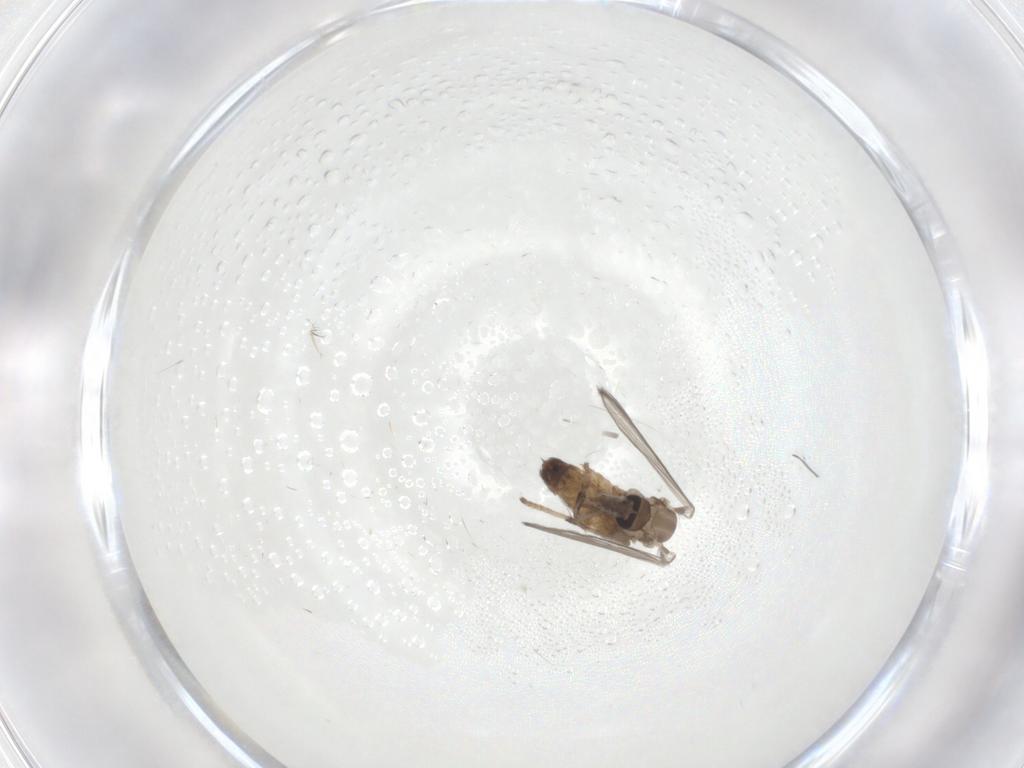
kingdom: Animalia
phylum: Arthropoda
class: Insecta
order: Diptera
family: Psychodidae
